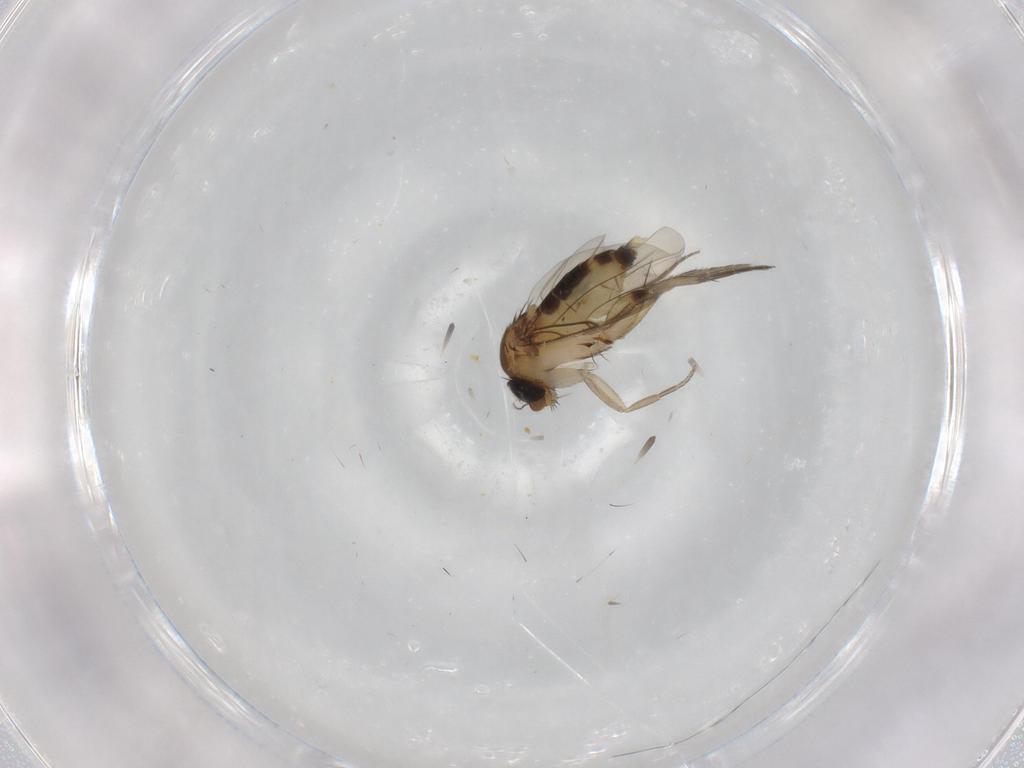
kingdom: Animalia
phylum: Arthropoda
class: Insecta
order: Diptera
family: Phoridae
